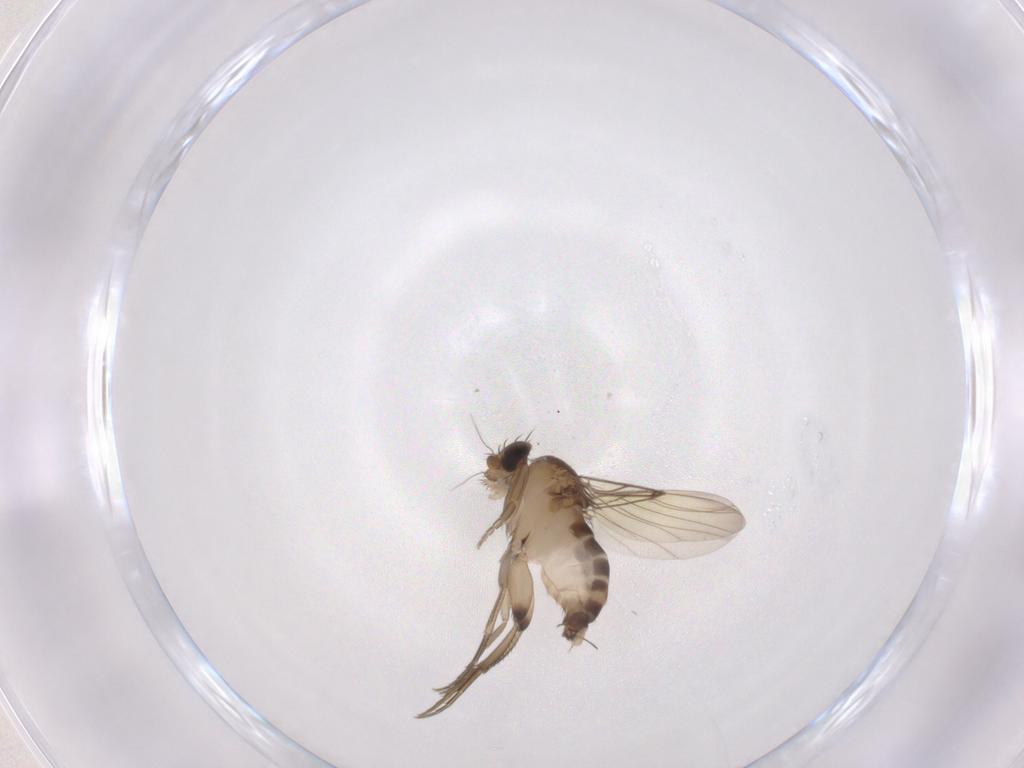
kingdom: Animalia
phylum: Arthropoda
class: Insecta
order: Diptera
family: Phoridae
